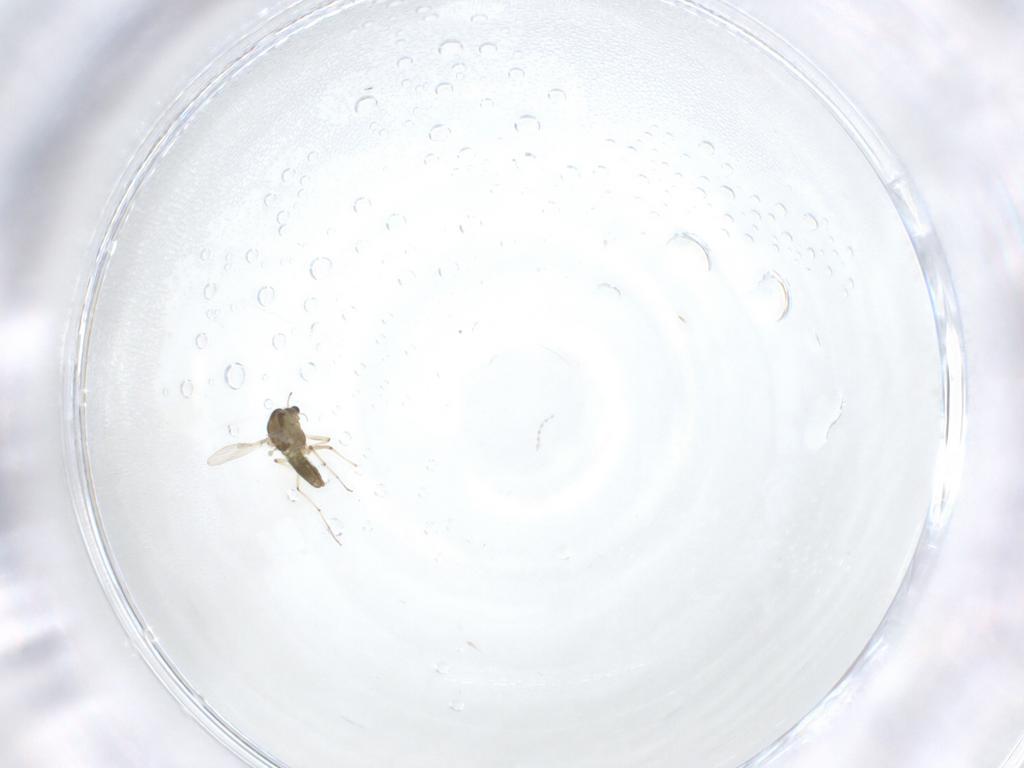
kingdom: Animalia
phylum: Arthropoda
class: Insecta
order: Diptera
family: Chironomidae
